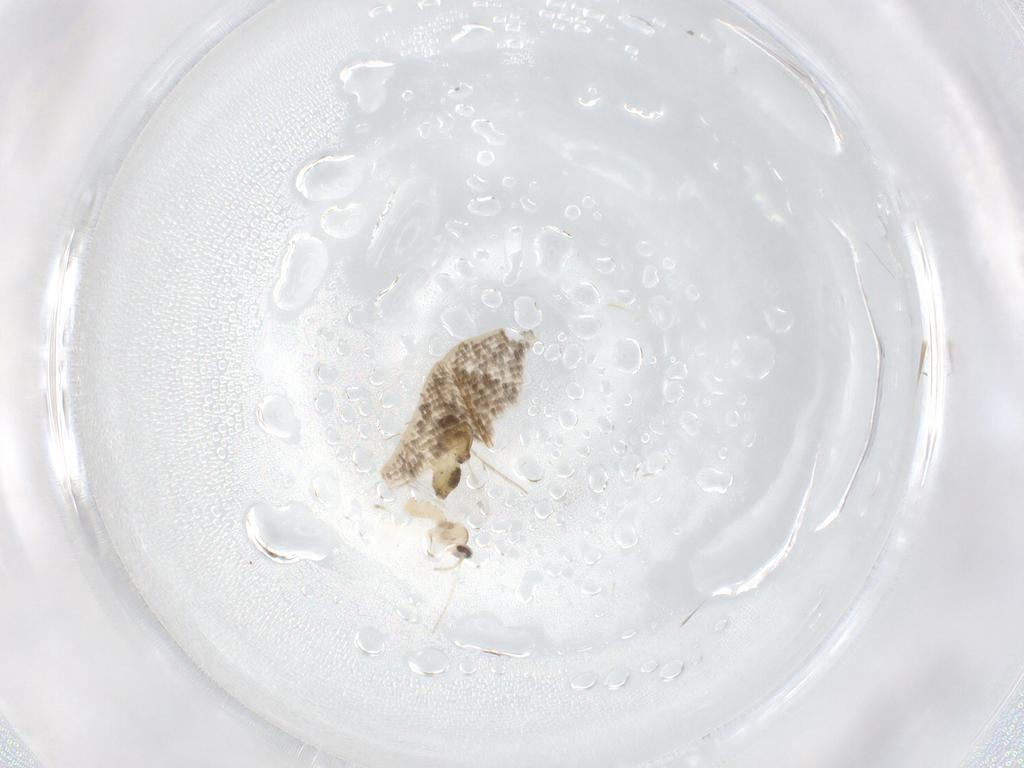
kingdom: Animalia
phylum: Arthropoda
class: Insecta
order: Diptera
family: Chironomidae
